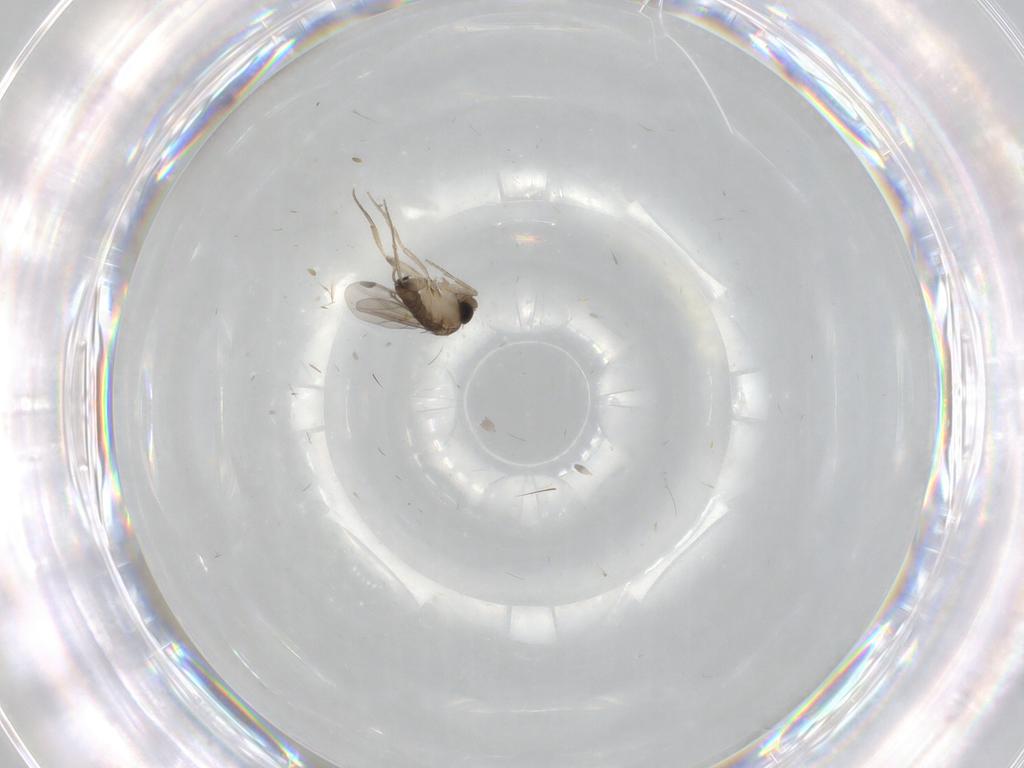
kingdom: Animalia
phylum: Arthropoda
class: Insecta
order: Diptera
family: Phoridae
